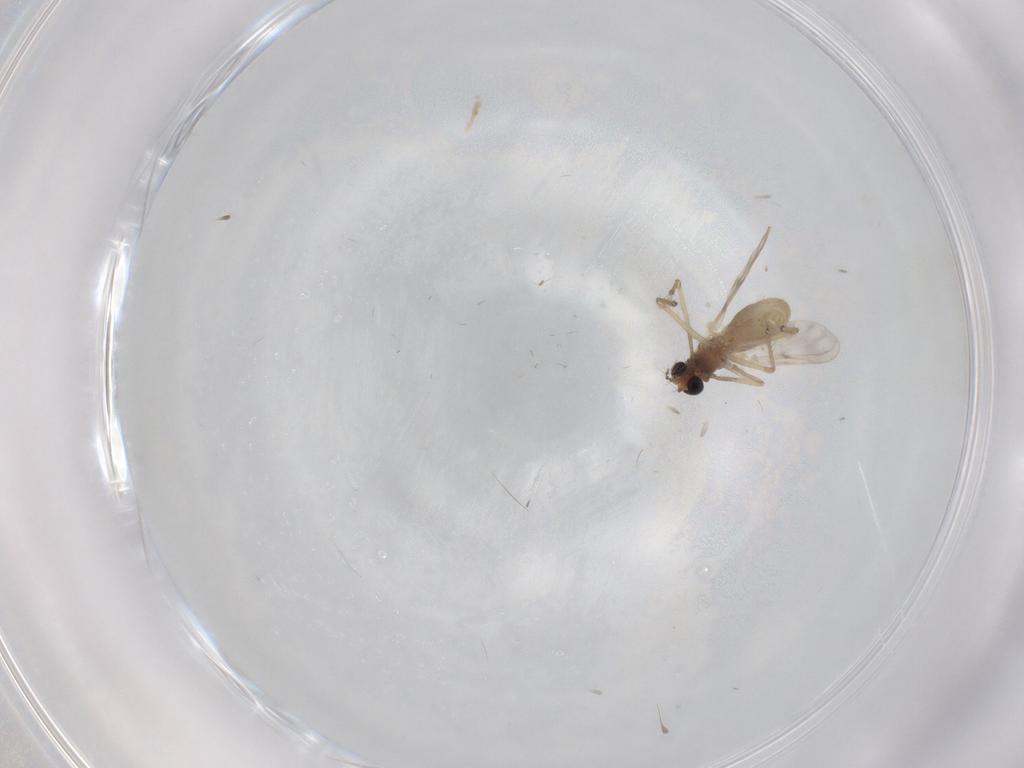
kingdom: Animalia
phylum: Arthropoda
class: Insecta
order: Diptera
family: Chironomidae
